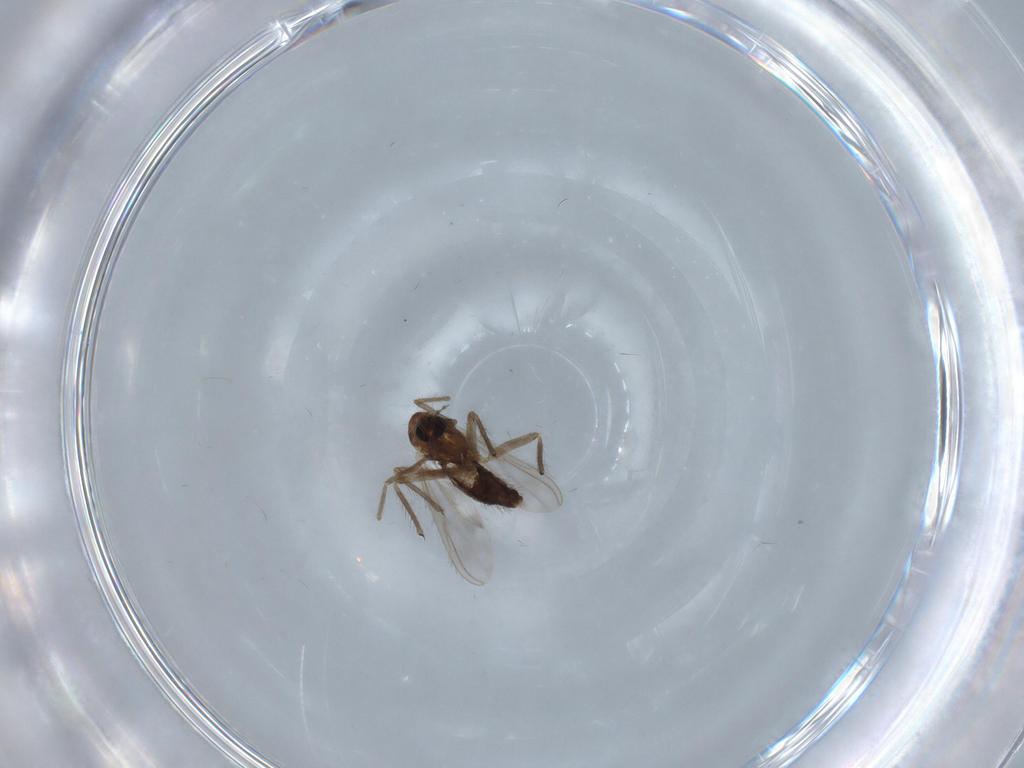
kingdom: Animalia
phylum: Arthropoda
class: Insecta
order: Diptera
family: Chironomidae
